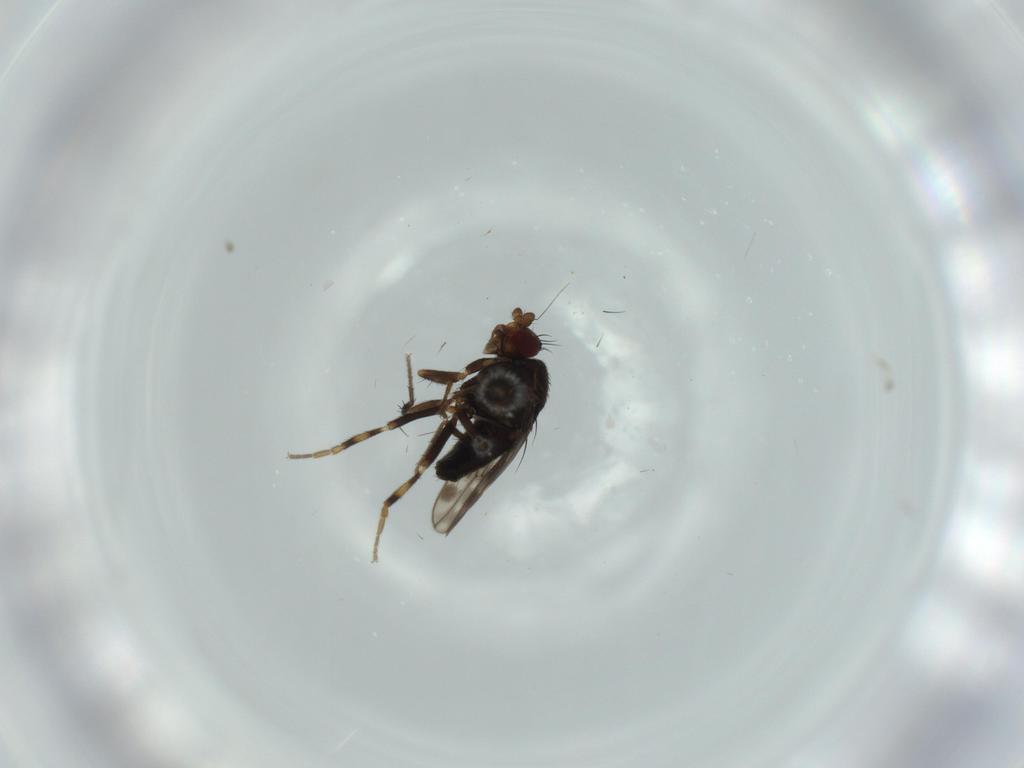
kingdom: Animalia
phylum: Arthropoda
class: Insecta
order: Diptera
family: Sphaeroceridae
